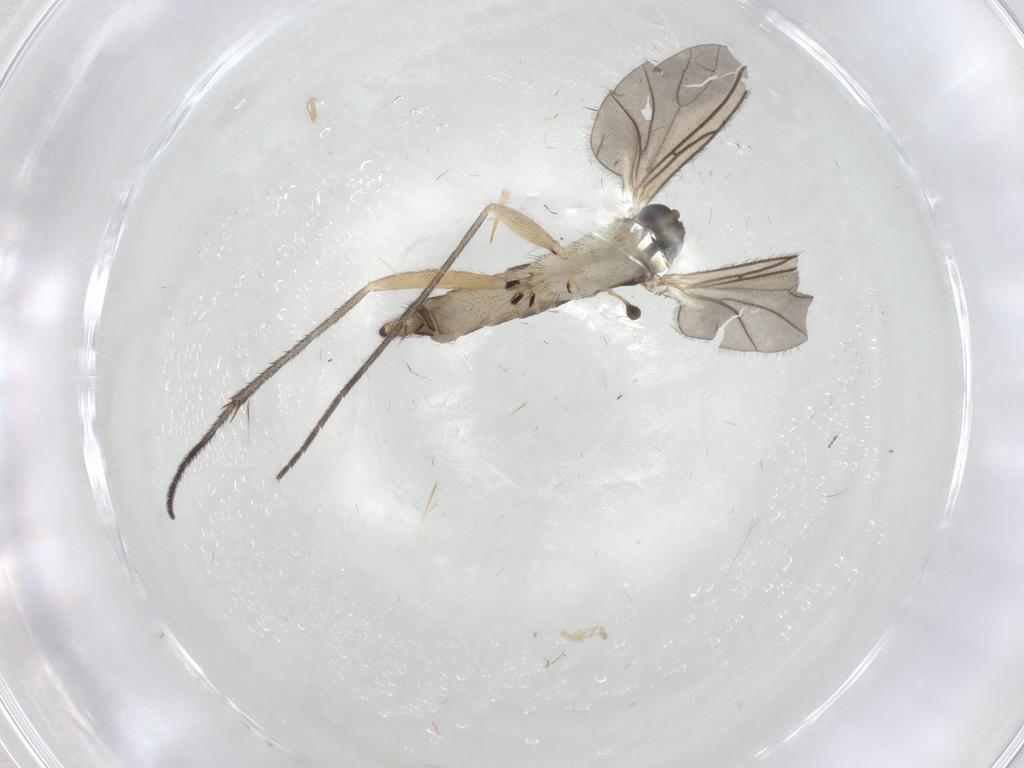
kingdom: Animalia
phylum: Arthropoda
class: Insecta
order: Diptera
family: Sciaridae
